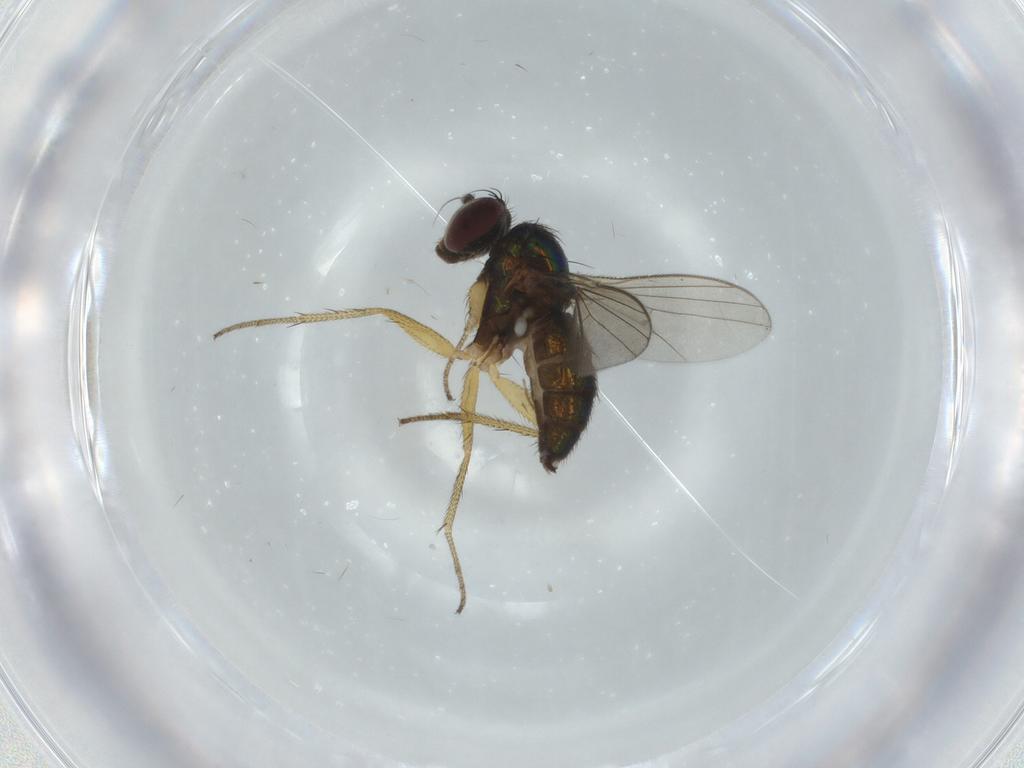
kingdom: Animalia
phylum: Arthropoda
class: Insecta
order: Diptera
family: Dolichopodidae
